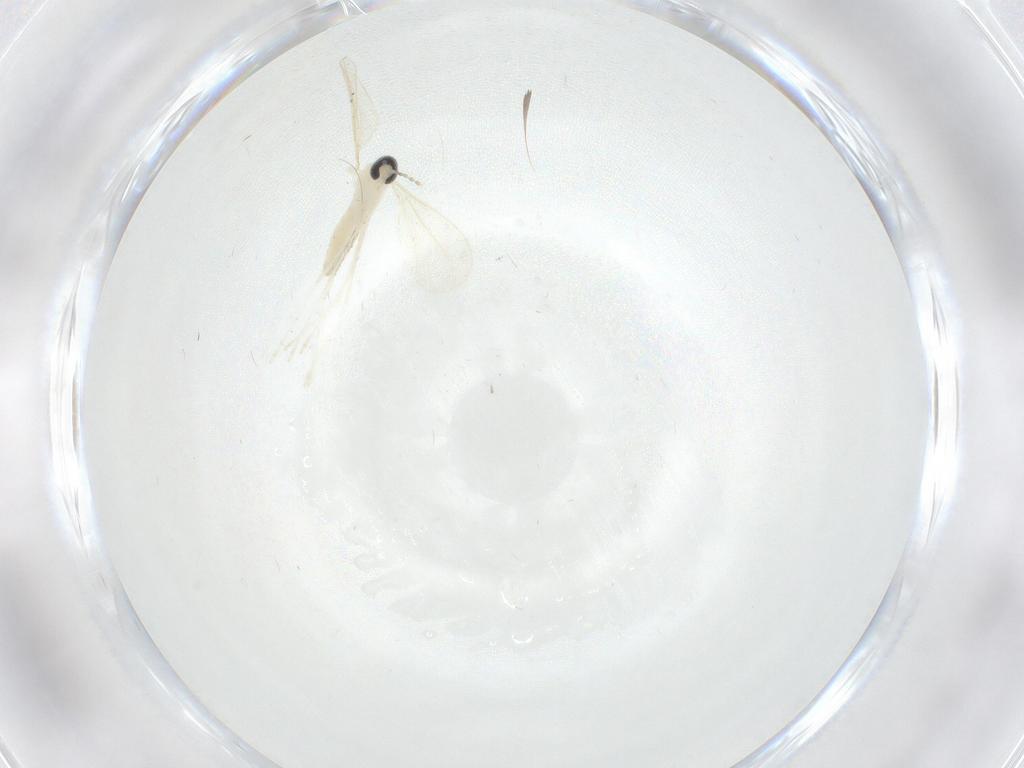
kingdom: Animalia
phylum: Arthropoda
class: Insecta
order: Diptera
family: Cecidomyiidae
